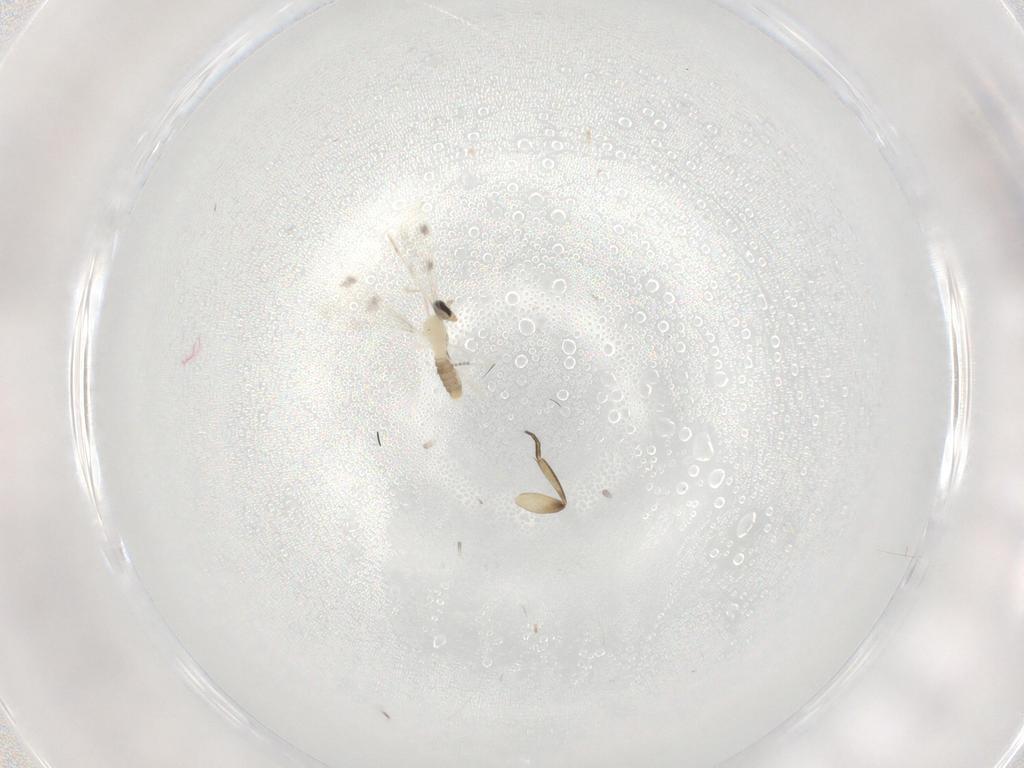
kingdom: Animalia
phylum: Arthropoda
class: Insecta
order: Diptera
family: Cecidomyiidae
